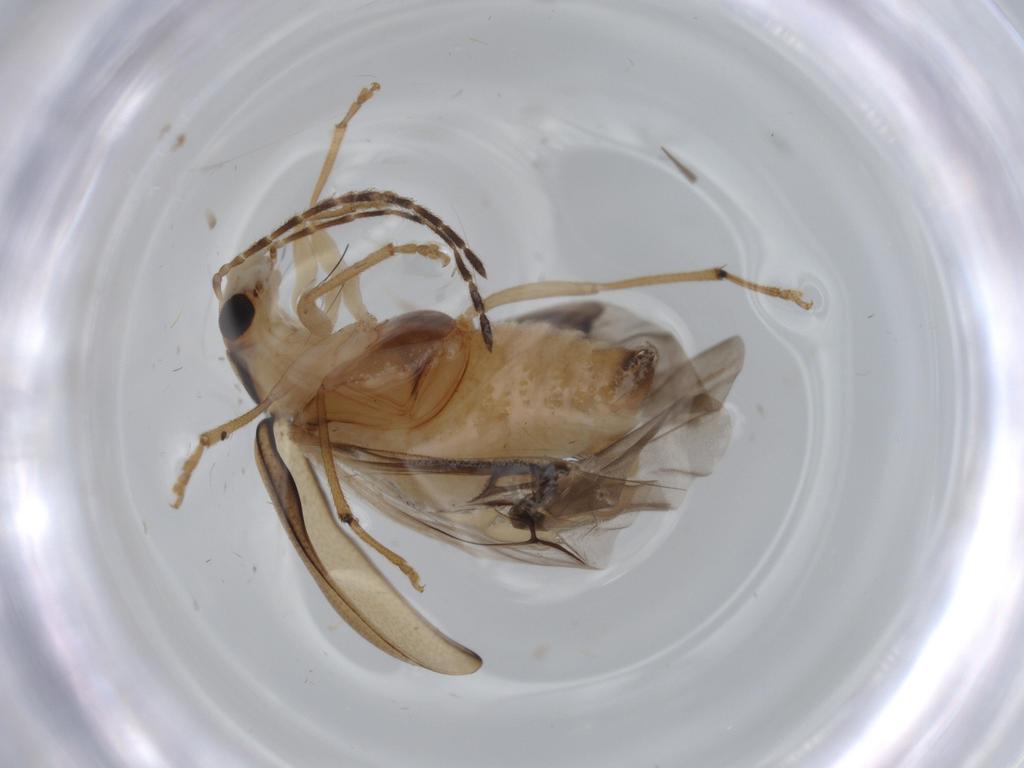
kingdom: Animalia
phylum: Arthropoda
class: Insecta
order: Coleoptera
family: Chrysomelidae
